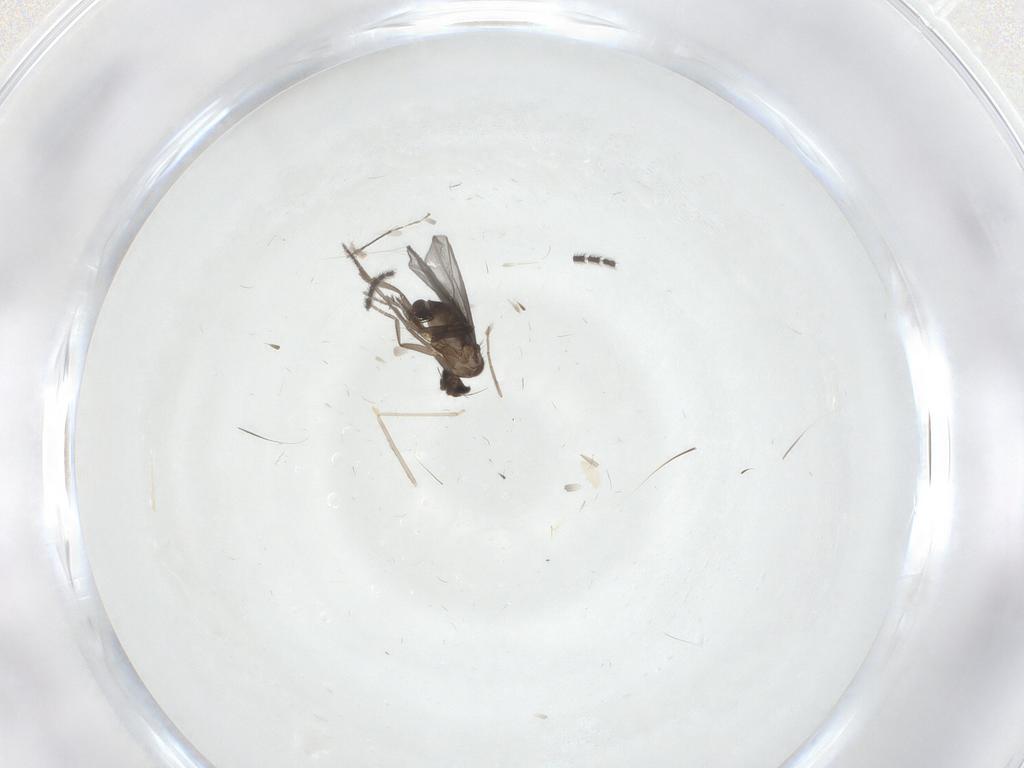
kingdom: Animalia
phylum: Arthropoda
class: Insecta
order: Diptera
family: Phoridae
